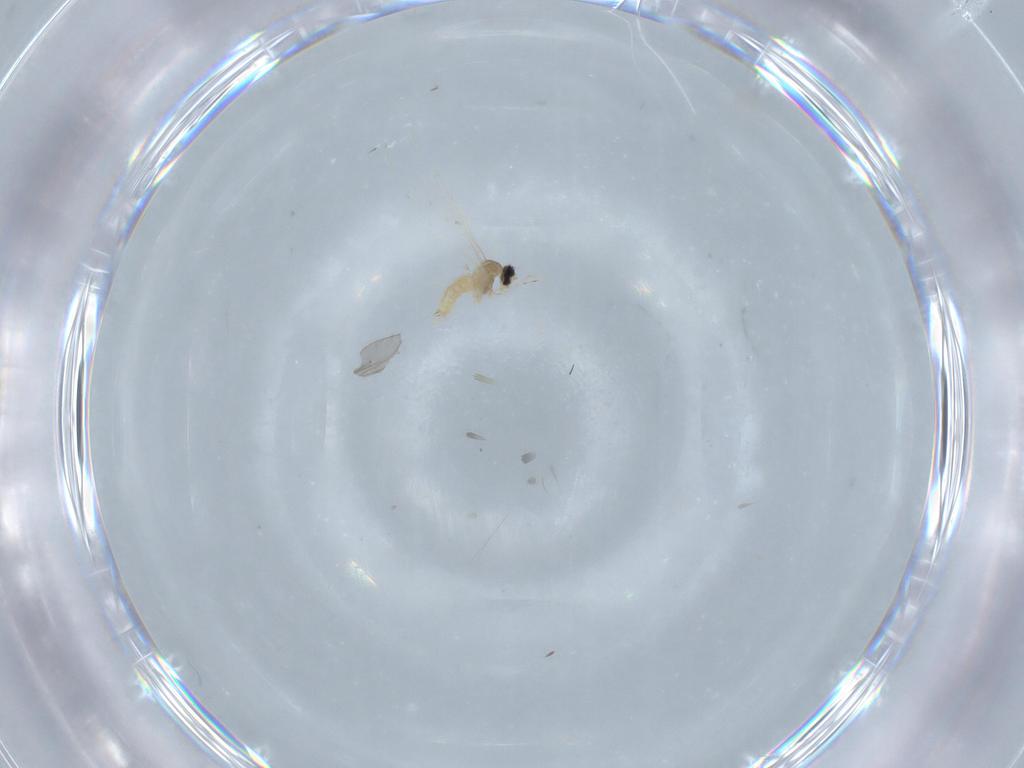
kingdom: Animalia
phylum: Arthropoda
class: Insecta
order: Diptera
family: Cecidomyiidae
